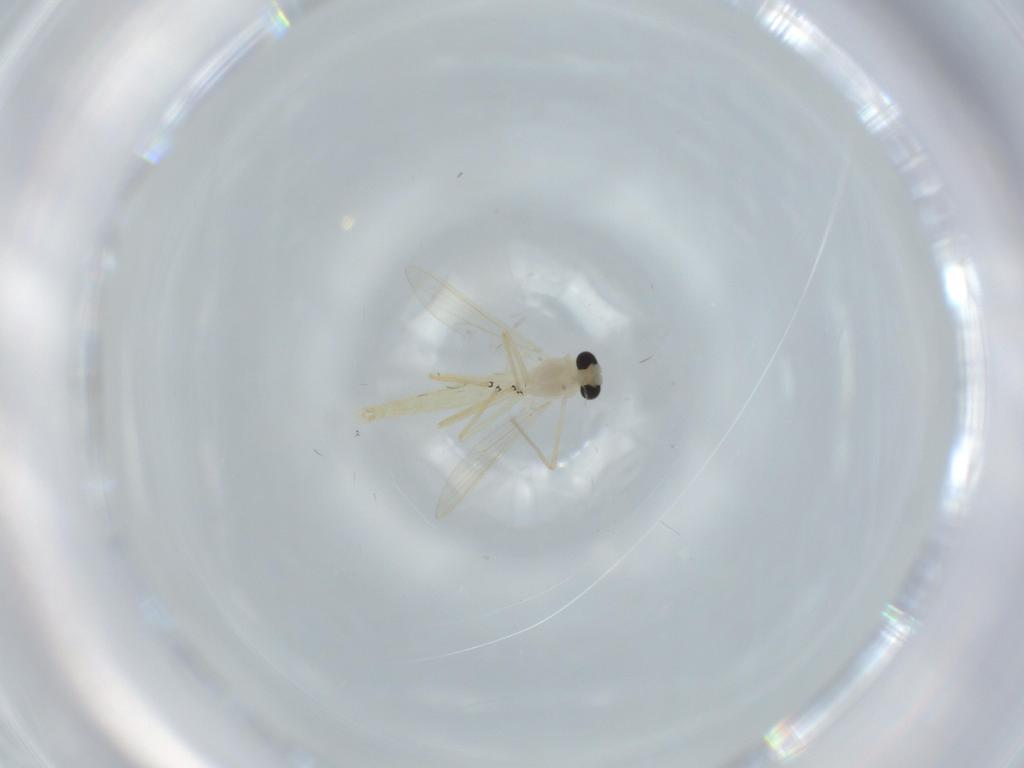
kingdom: Animalia
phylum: Arthropoda
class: Insecta
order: Diptera
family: Chironomidae
